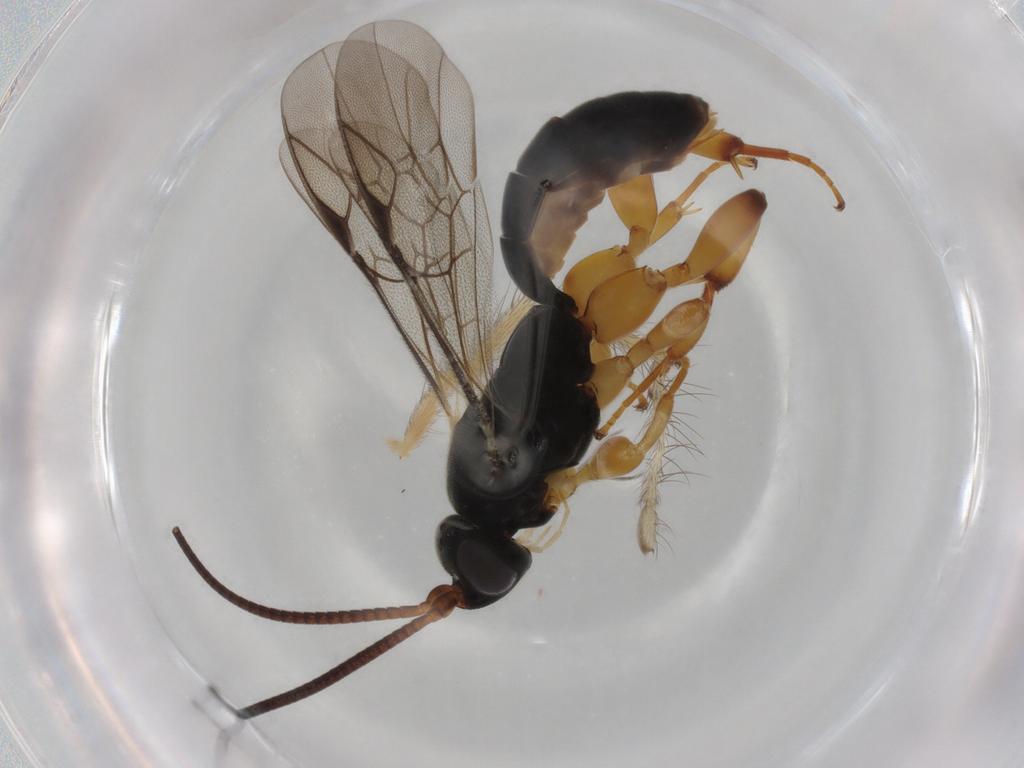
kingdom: Animalia
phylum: Arthropoda
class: Insecta
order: Hymenoptera
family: Ichneumonidae
